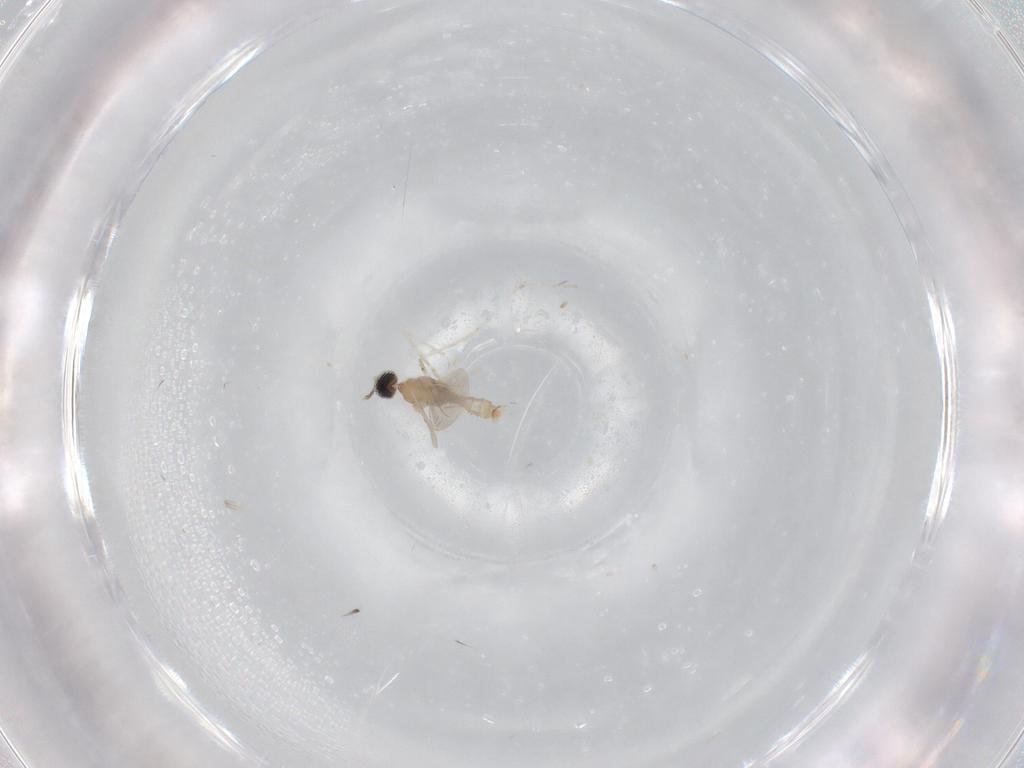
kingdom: Animalia
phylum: Arthropoda
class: Insecta
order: Diptera
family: Cecidomyiidae
